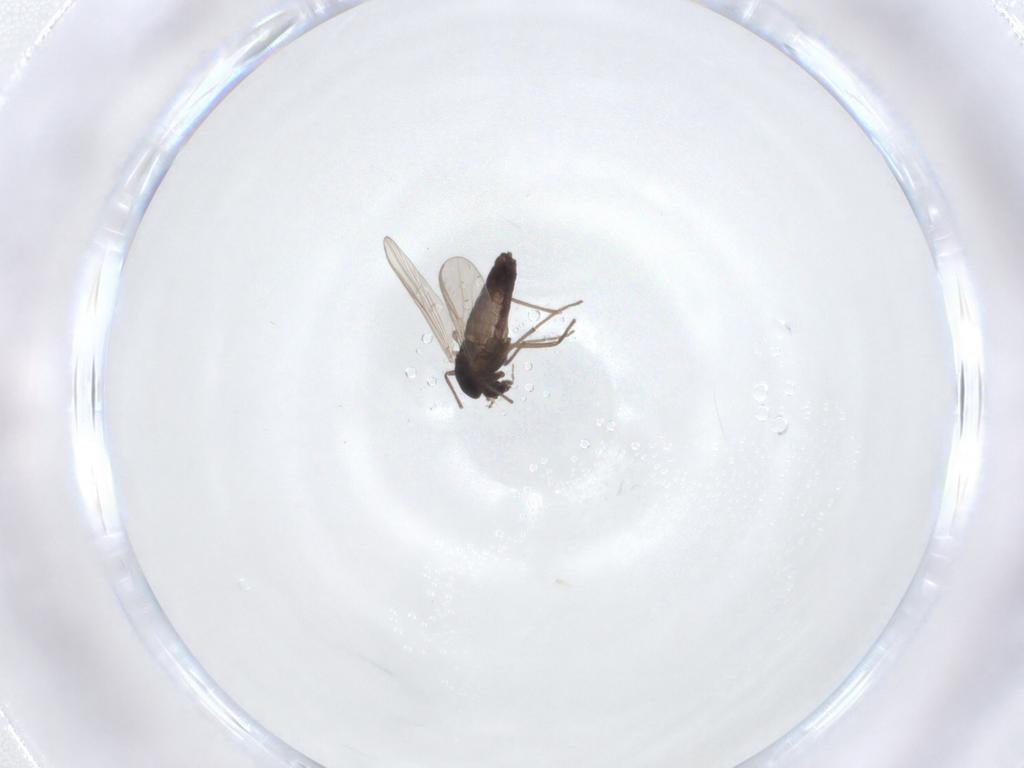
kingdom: Animalia
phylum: Arthropoda
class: Insecta
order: Diptera
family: Chironomidae
